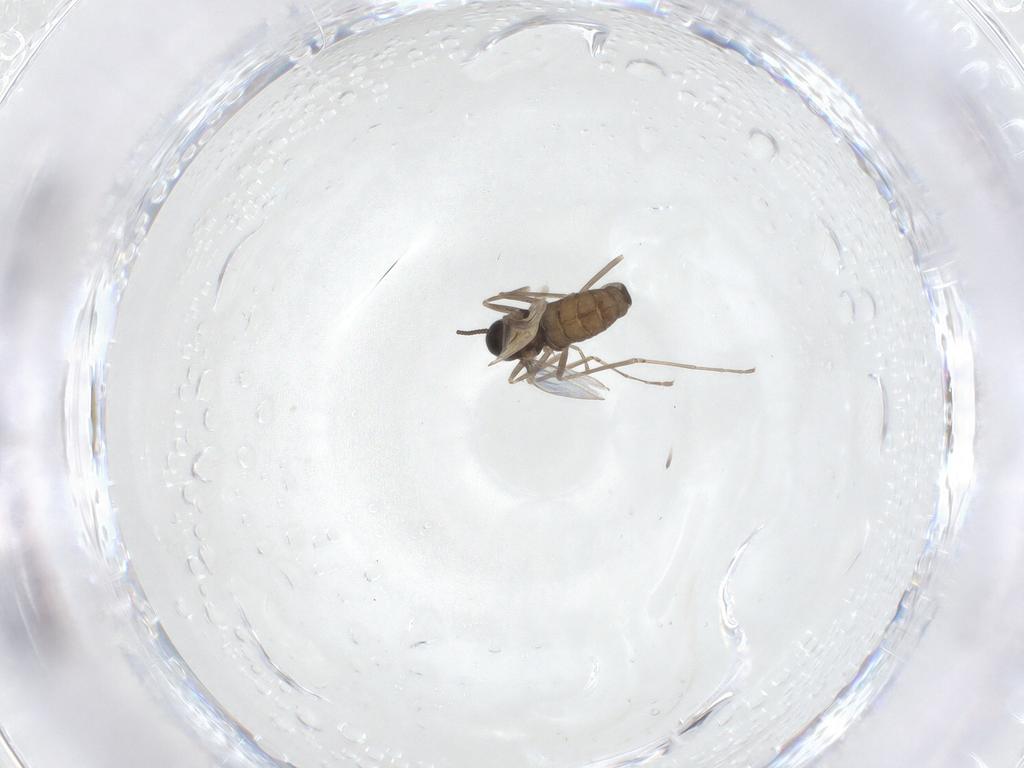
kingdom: Animalia
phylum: Arthropoda
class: Insecta
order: Diptera
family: Cecidomyiidae
